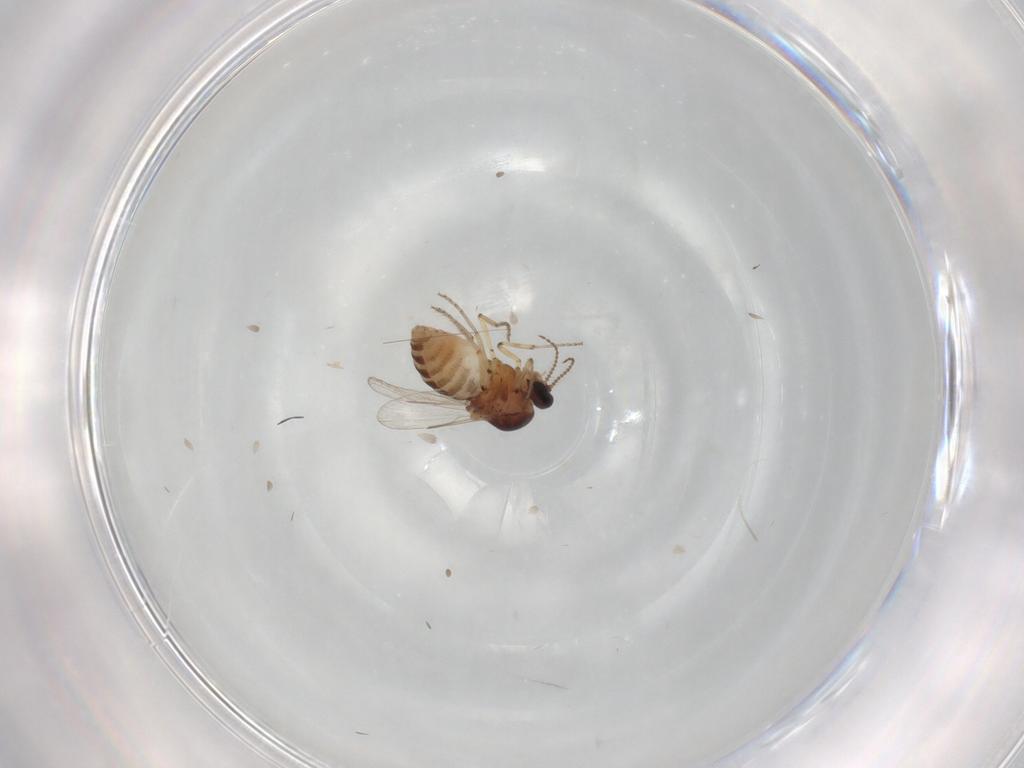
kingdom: Animalia
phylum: Arthropoda
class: Insecta
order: Diptera
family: Ceratopogonidae
